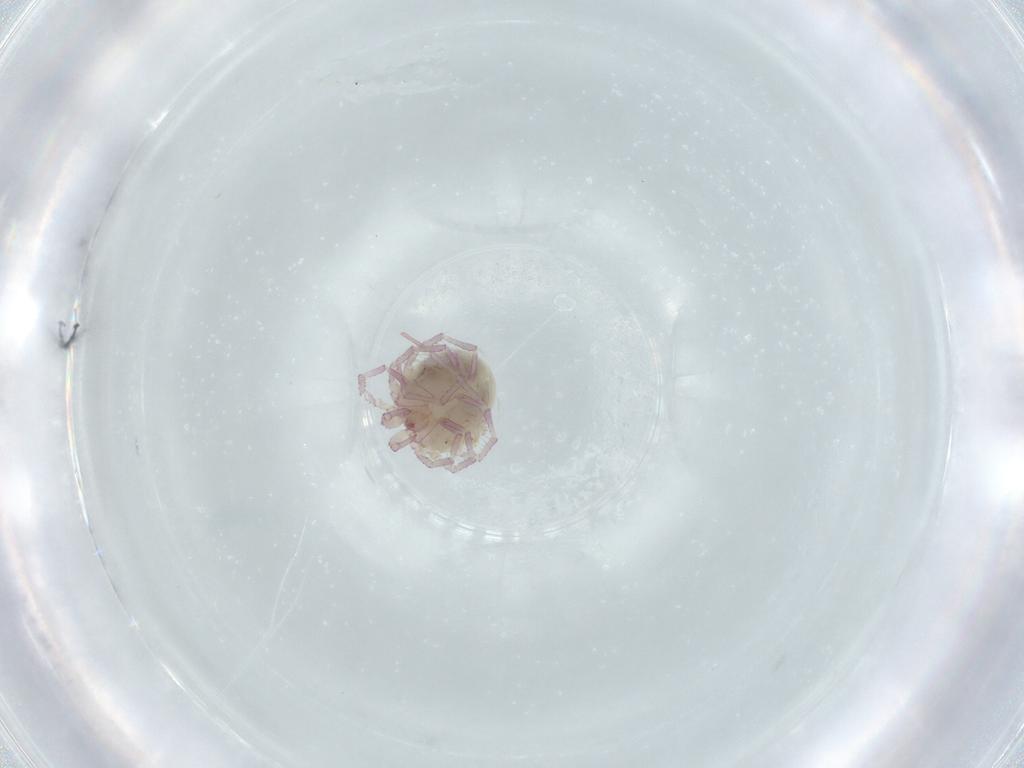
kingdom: Animalia
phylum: Arthropoda
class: Arachnida
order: Trombidiformes
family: Pionidae
